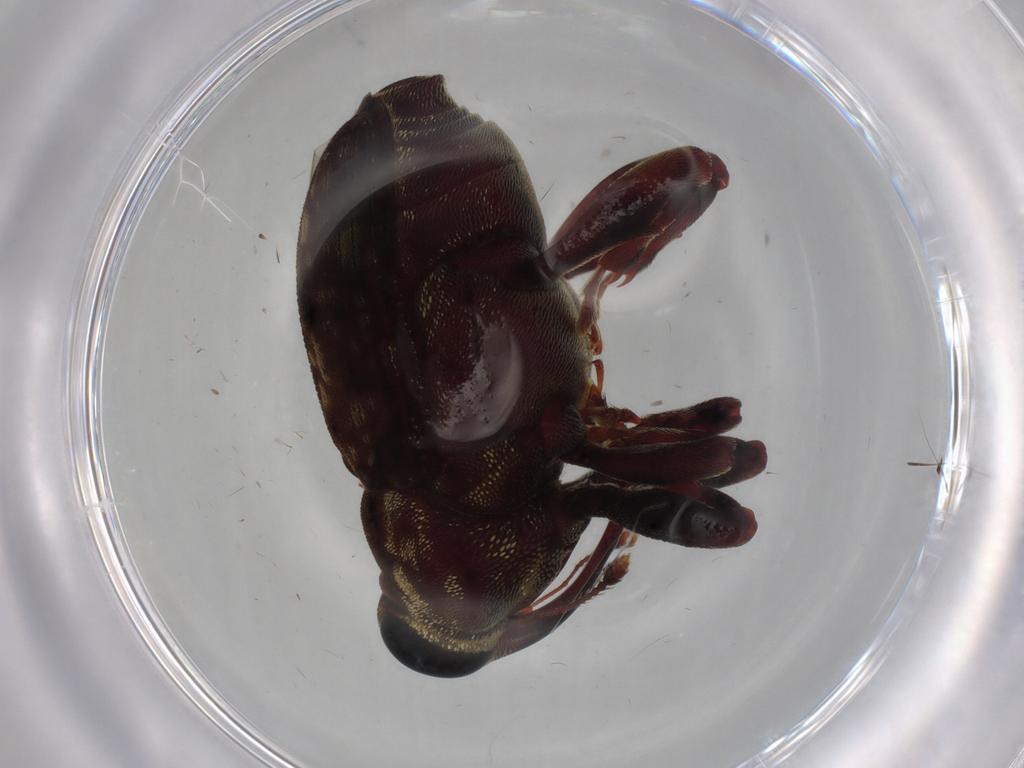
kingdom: Animalia
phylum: Arthropoda
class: Insecta
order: Coleoptera
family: Curculionidae
